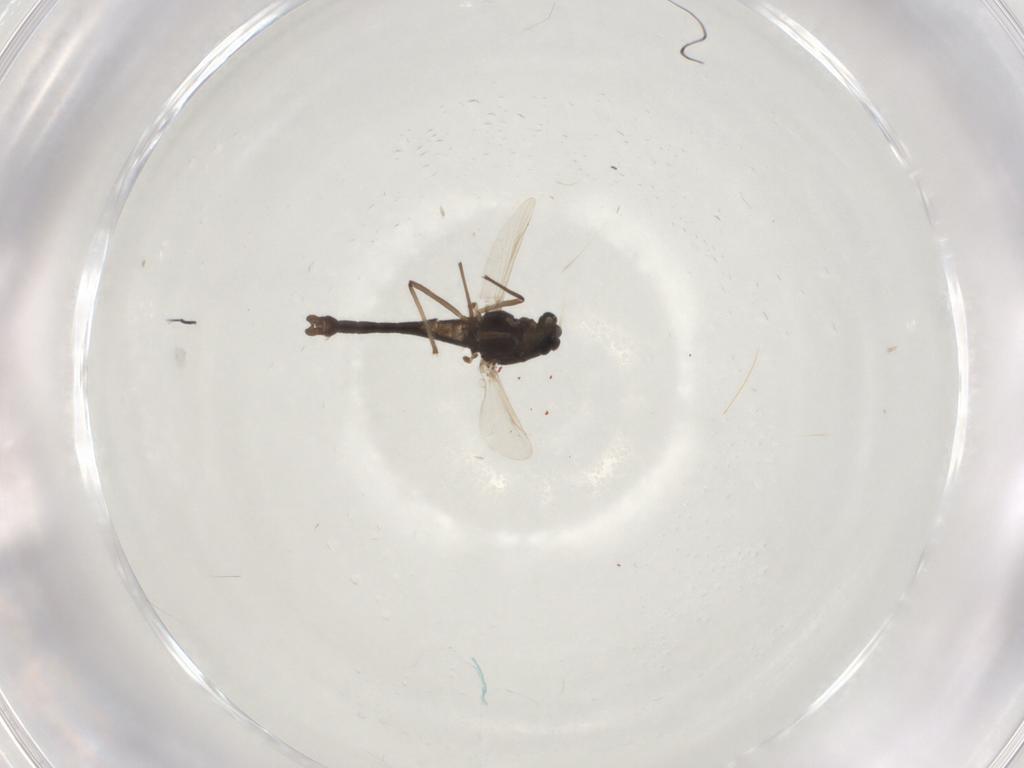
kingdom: Animalia
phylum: Arthropoda
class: Insecta
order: Diptera
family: Chironomidae
